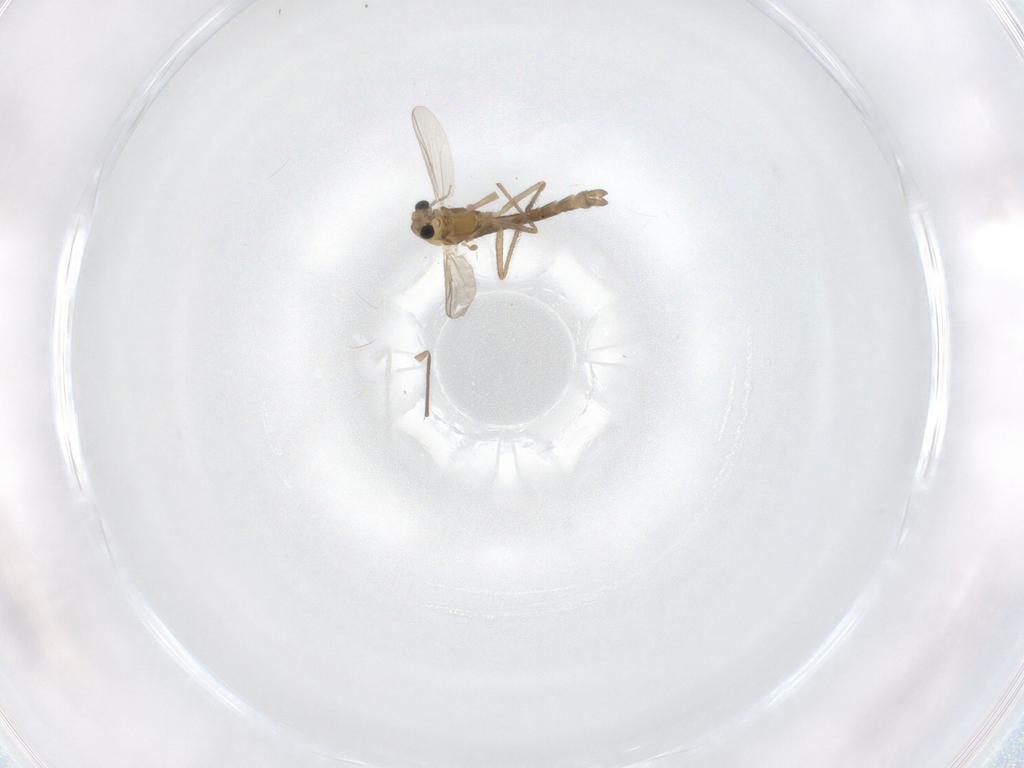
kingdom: Animalia
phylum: Arthropoda
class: Insecta
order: Diptera
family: Chironomidae
